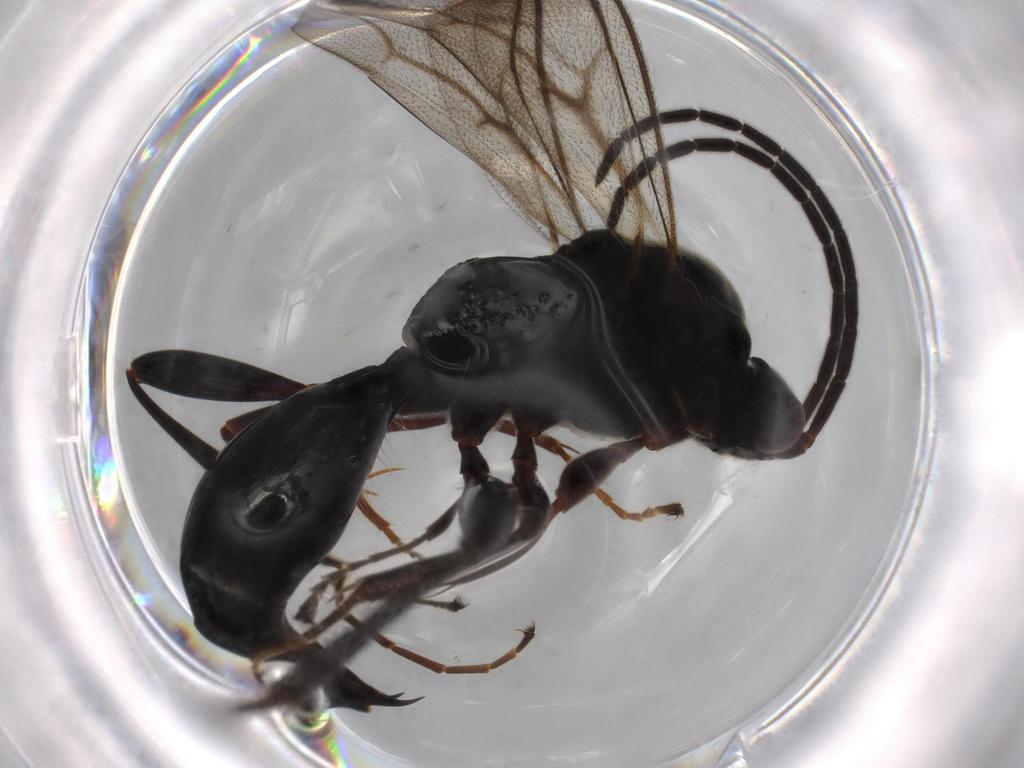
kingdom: Animalia
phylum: Arthropoda
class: Insecta
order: Hymenoptera
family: Proctotrupidae
